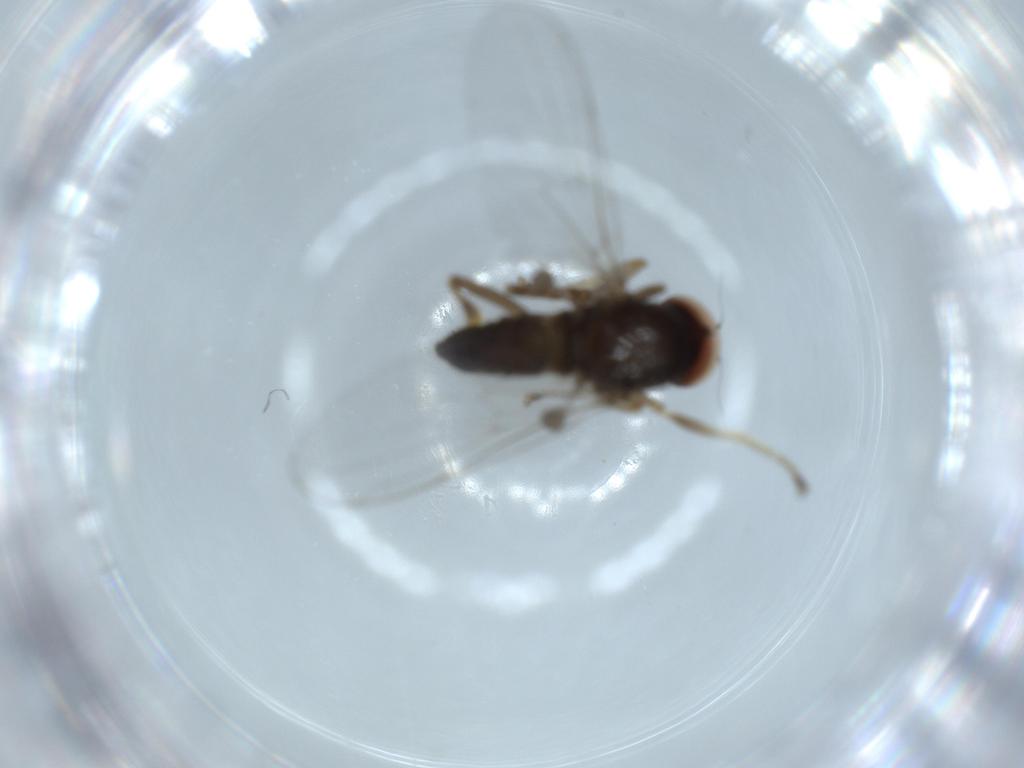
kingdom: Animalia
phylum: Arthropoda
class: Insecta
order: Diptera
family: Hybotidae
